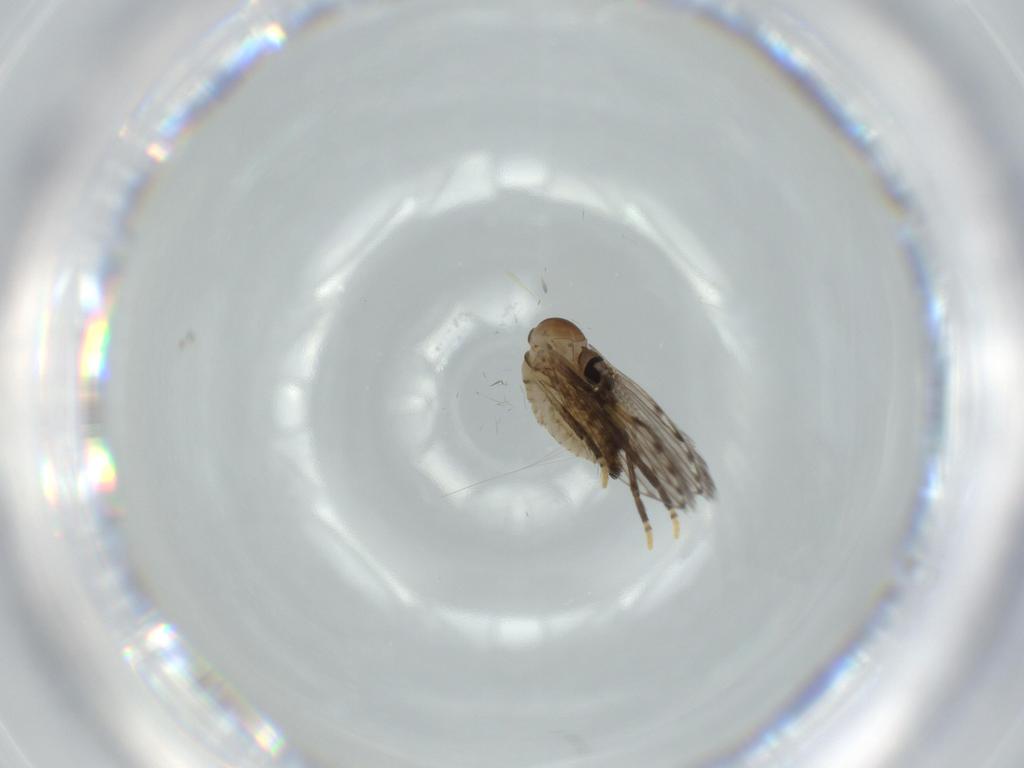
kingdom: Animalia
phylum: Arthropoda
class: Insecta
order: Diptera
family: Psychodidae
